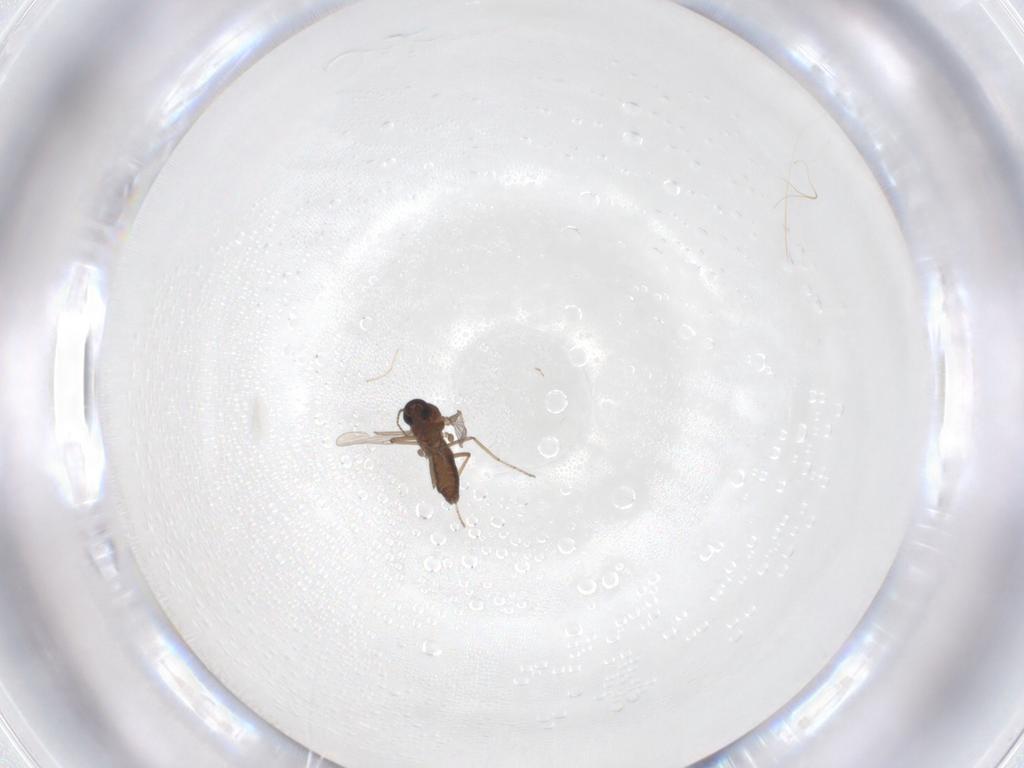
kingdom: Animalia
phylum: Arthropoda
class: Insecta
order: Diptera
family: Ceratopogonidae
